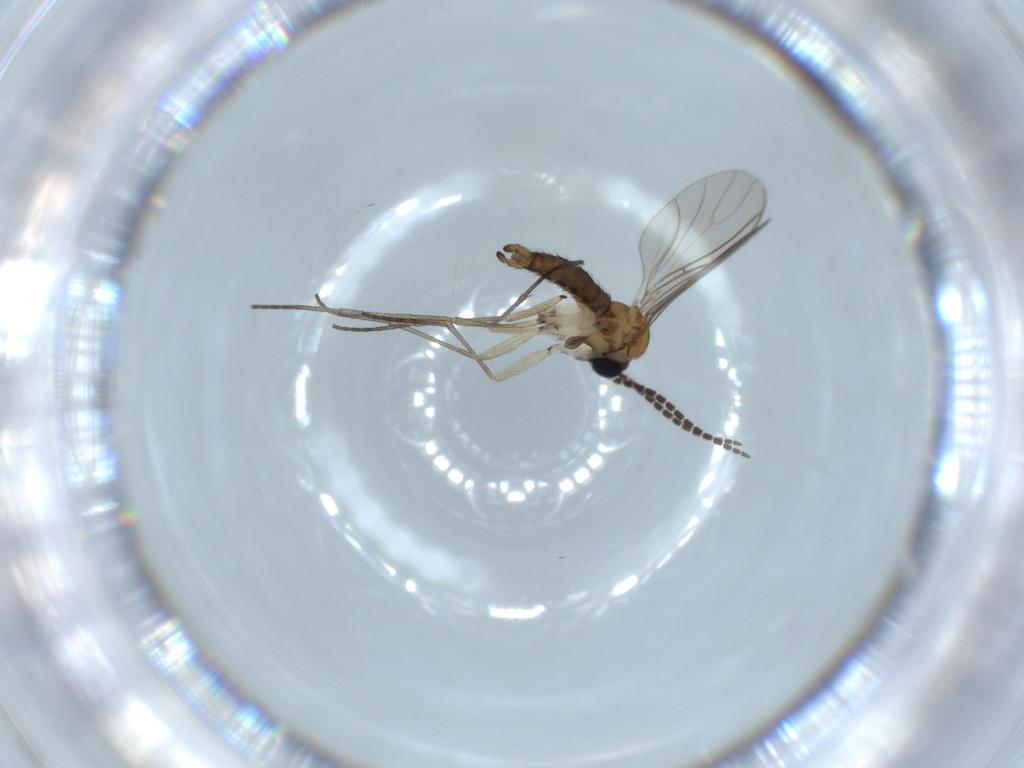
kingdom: Animalia
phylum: Arthropoda
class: Insecta
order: Diptera
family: Sciaridae
